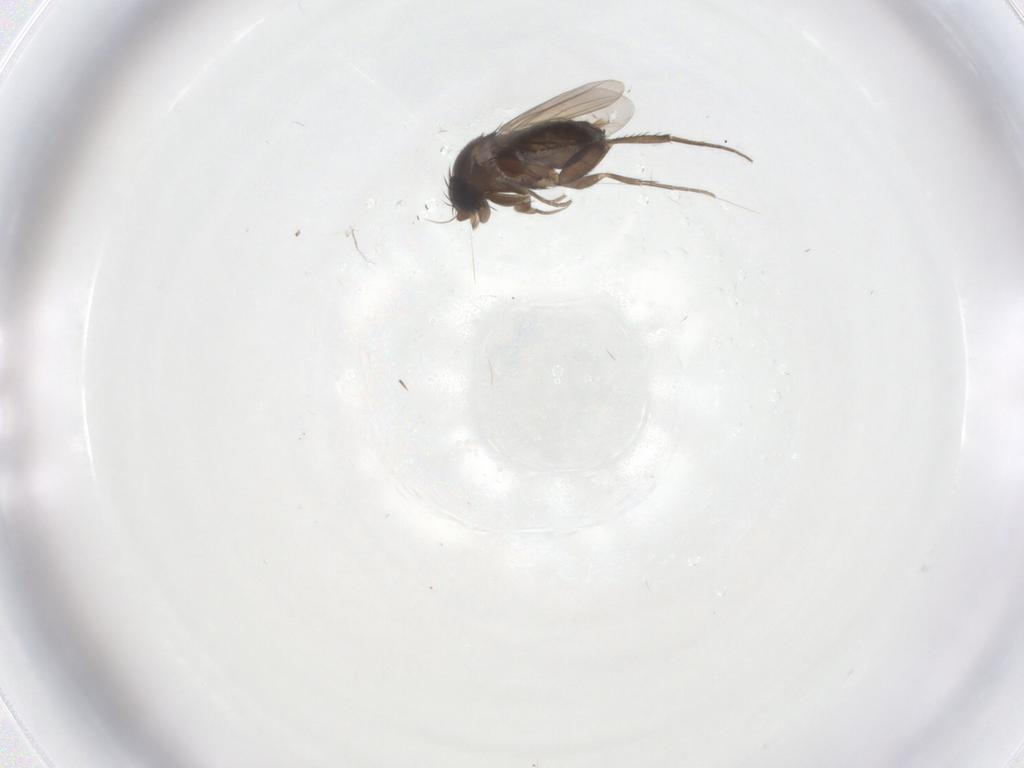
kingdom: Animalia
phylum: Arthropoda
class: Insecta
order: Diptera
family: Phoridae
